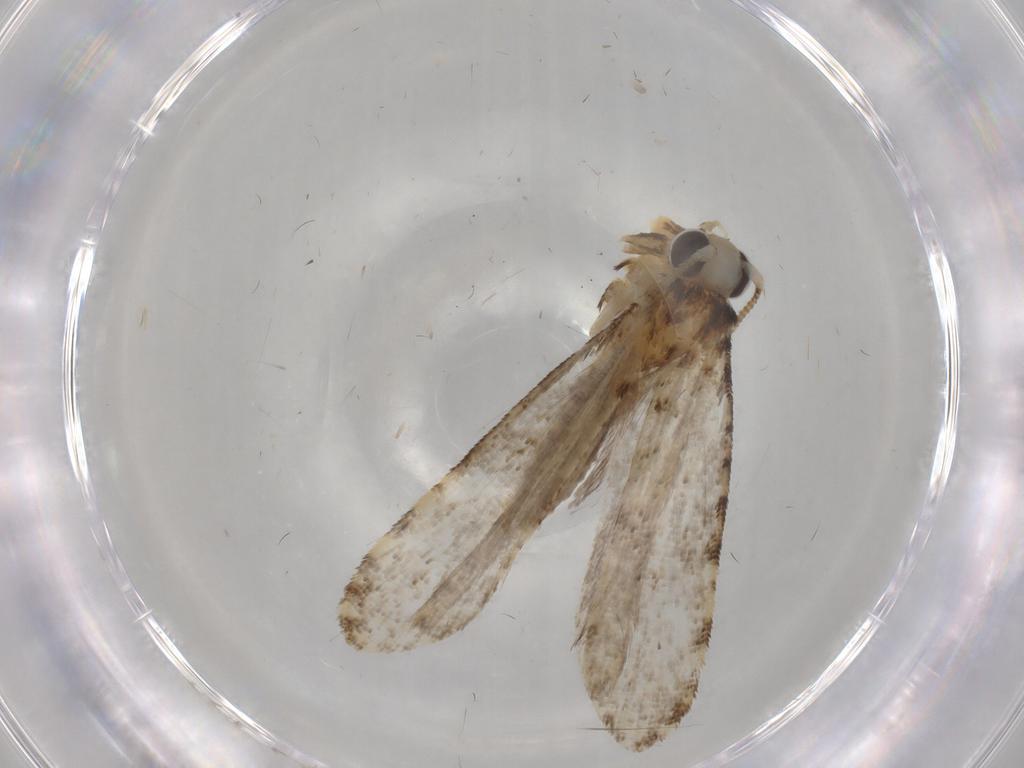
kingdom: Animalia
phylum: Arthropoda
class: Insecta
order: Lepidoptera
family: Tineidae
